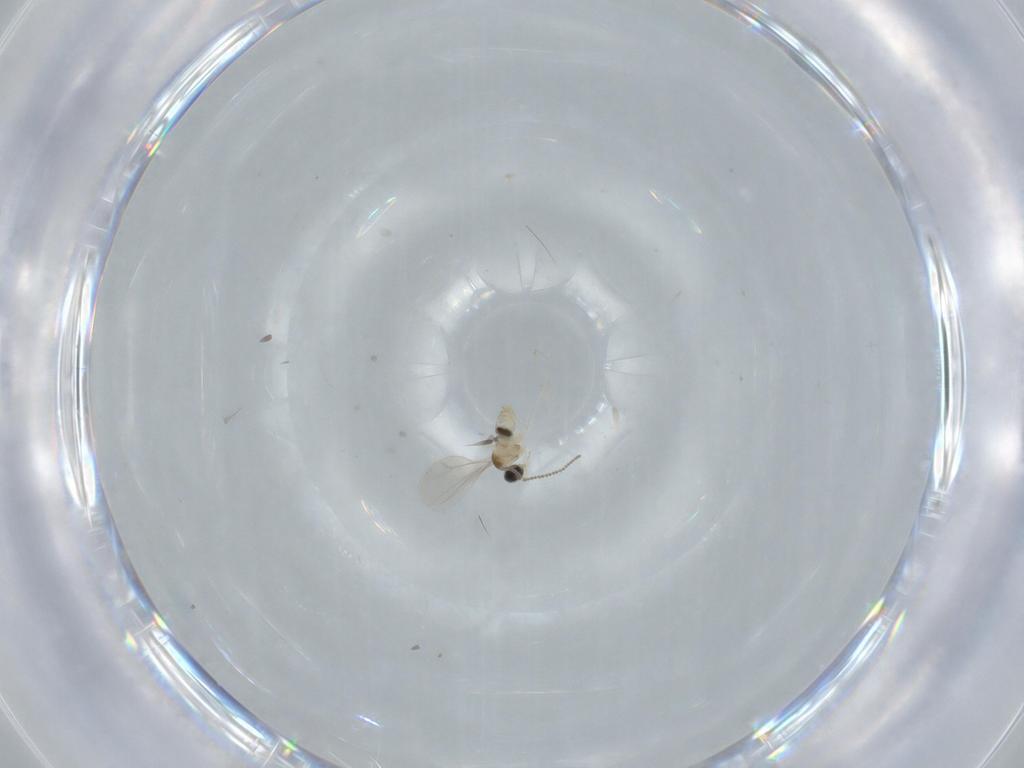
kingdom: Animalia
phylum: Arthropoda
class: Insecta
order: Diptera
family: Cecidomyiidae
